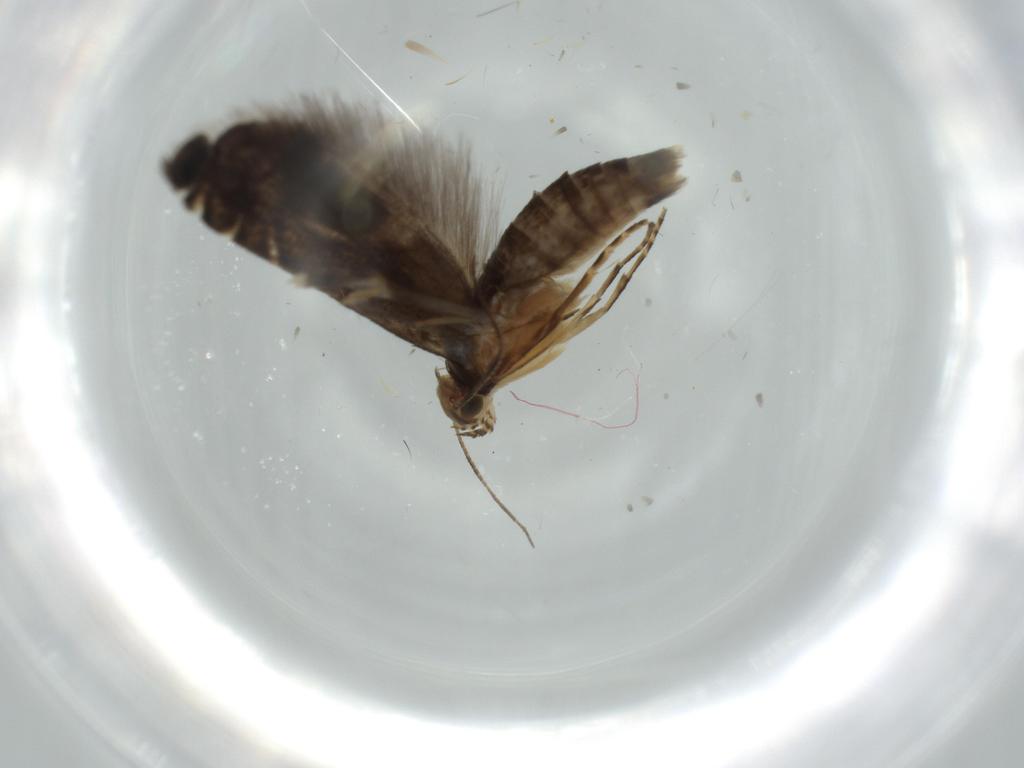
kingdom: Animalia
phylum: Arthropoda
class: Insecta
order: Lepidoptera
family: Glyphipterigidae
